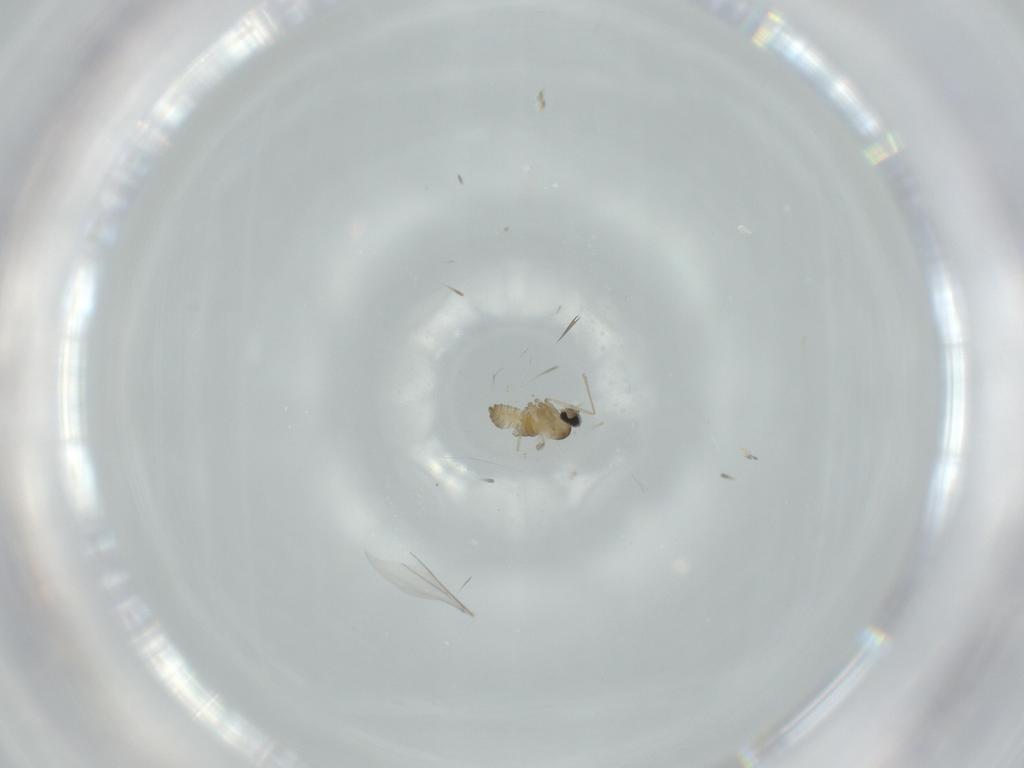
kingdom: Animalia
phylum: Arthropoda
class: Insecta
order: Diptera
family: Cecidomyiidae
